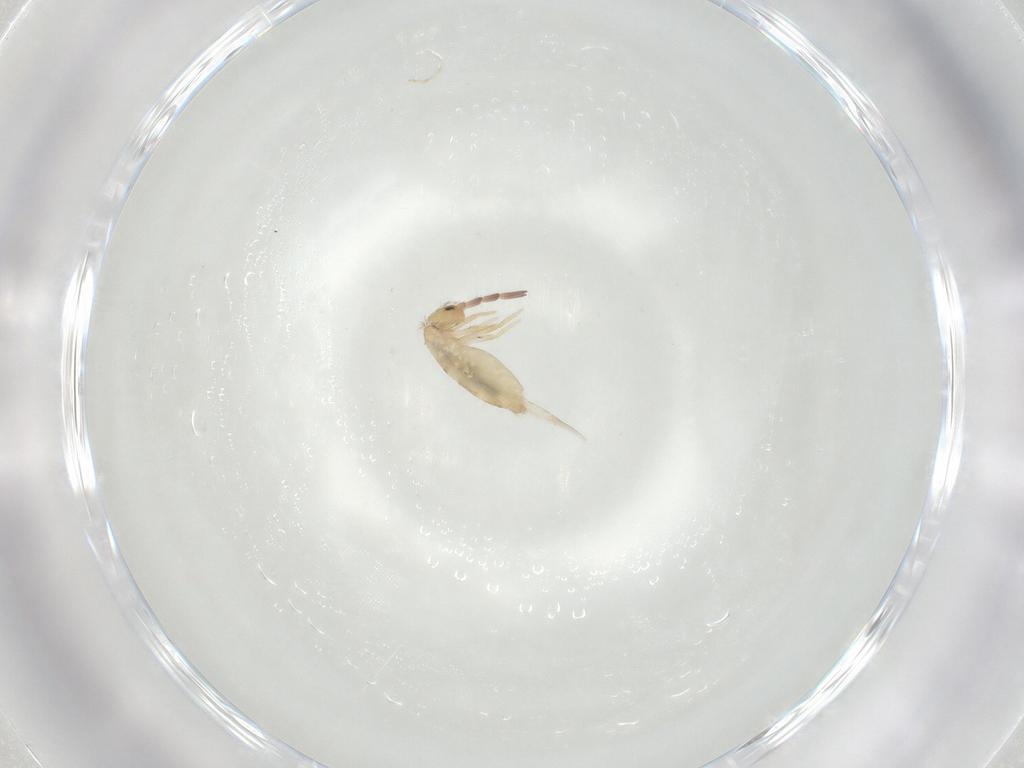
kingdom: Animalia
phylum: Arthropoda
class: Collembola
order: Entomobryomorpha
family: Entomobryidae
